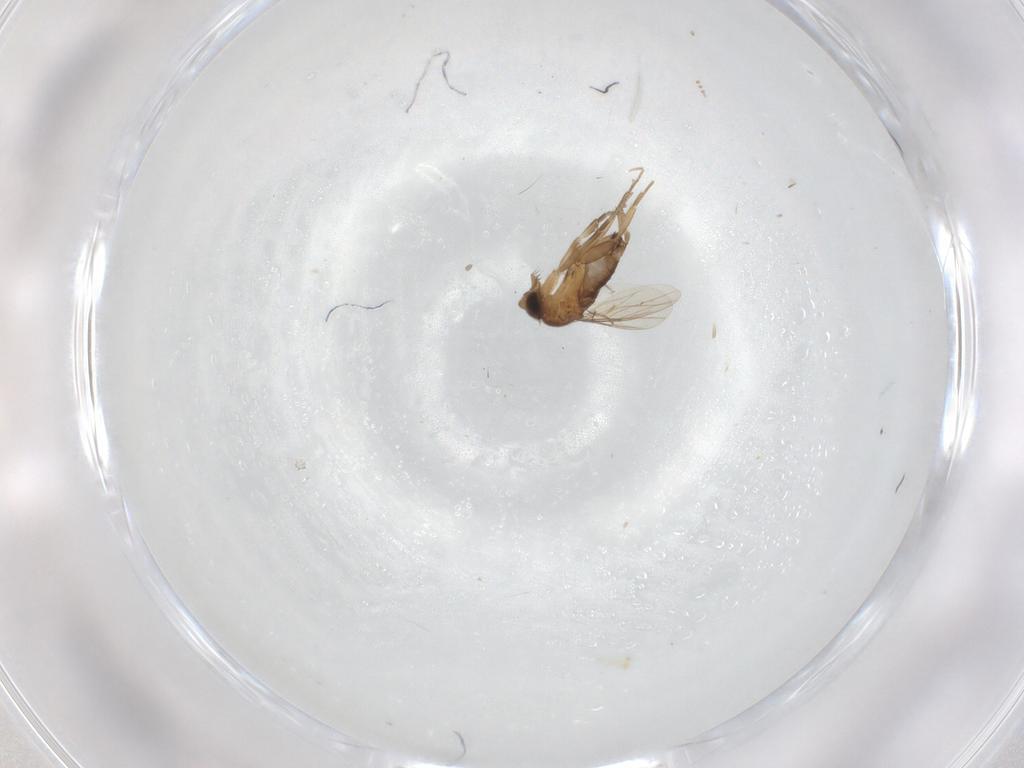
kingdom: Animalia
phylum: Arthropoda
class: Insecta
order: Diptera
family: Phoridae
